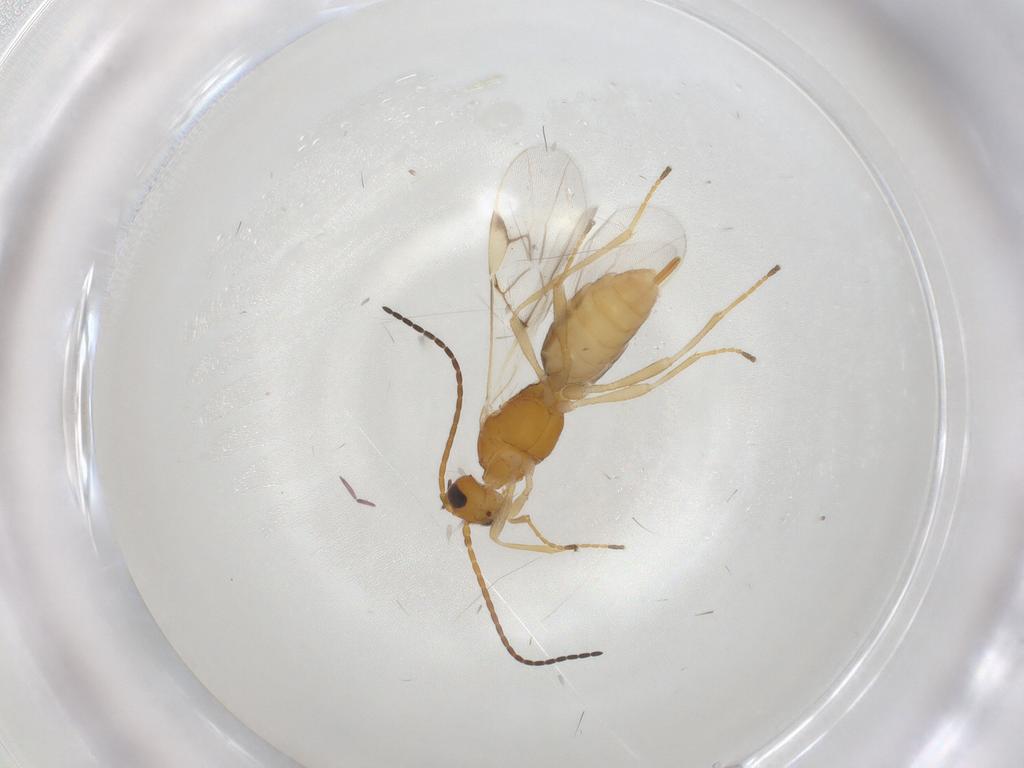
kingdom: Animalia
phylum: Arthropoda
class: Insecta
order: Hymenoptera
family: Braconidae
